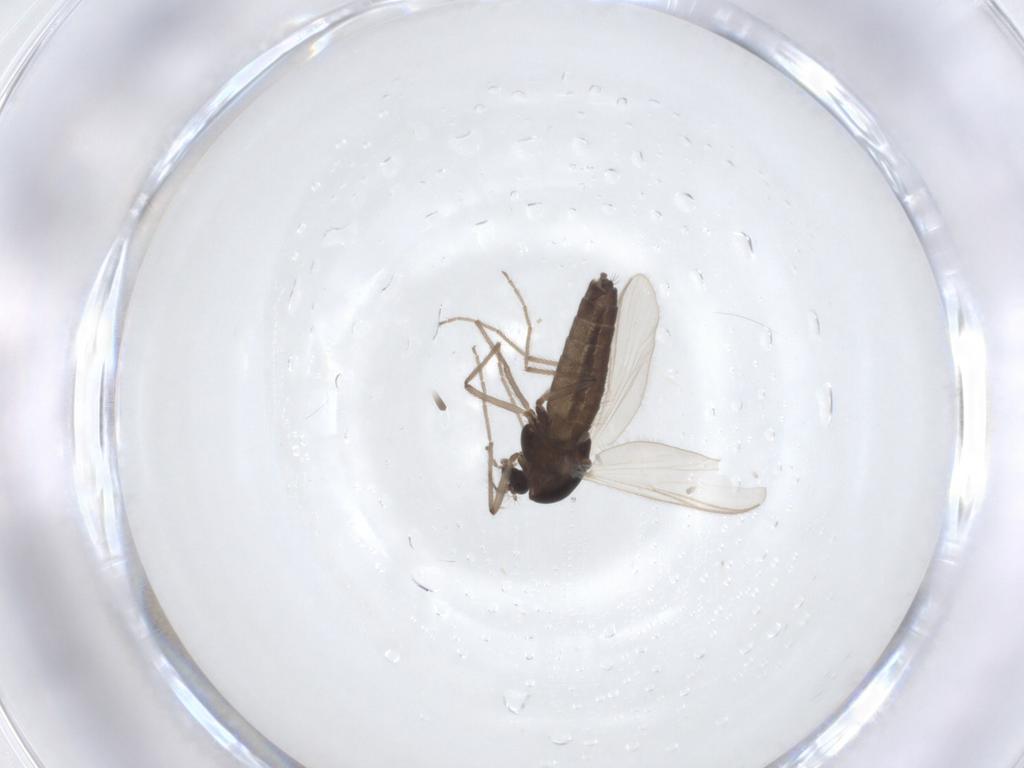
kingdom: Animalia
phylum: Arthropoda
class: Insecta
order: Diptera
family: Chironomidae
